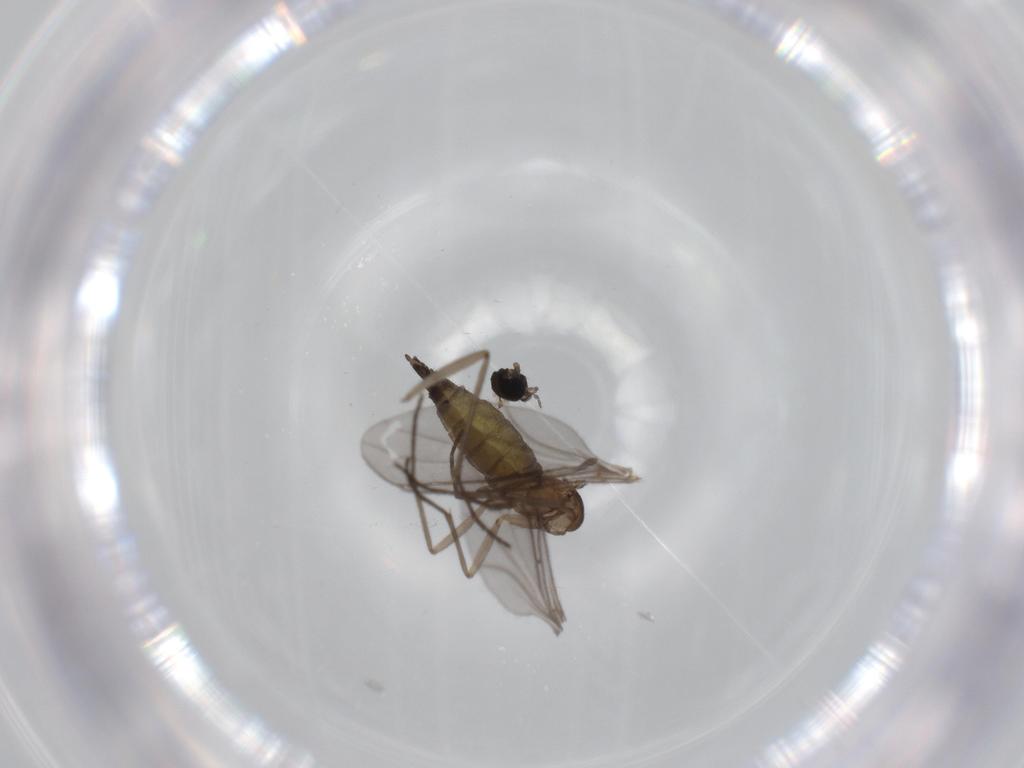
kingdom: Animalia
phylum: Arthropoda
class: Insecta
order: Diptera
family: Sciaridae
